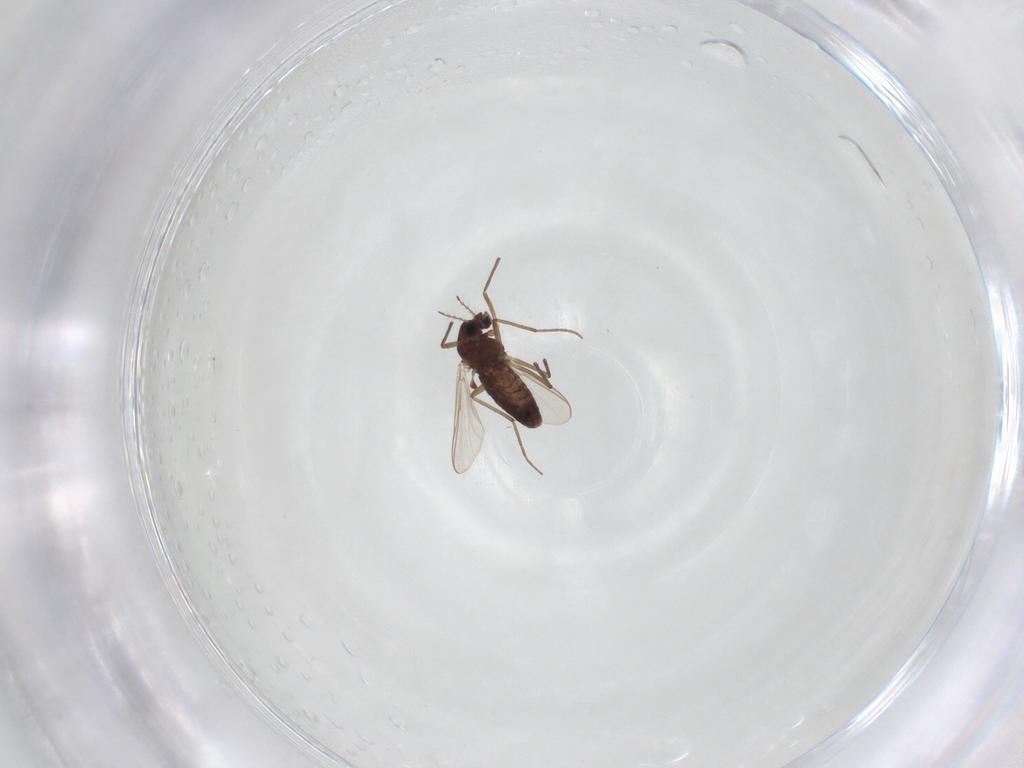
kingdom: Animalia
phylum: Arthropoda
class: Insecta
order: Diptera
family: Chironomidae
